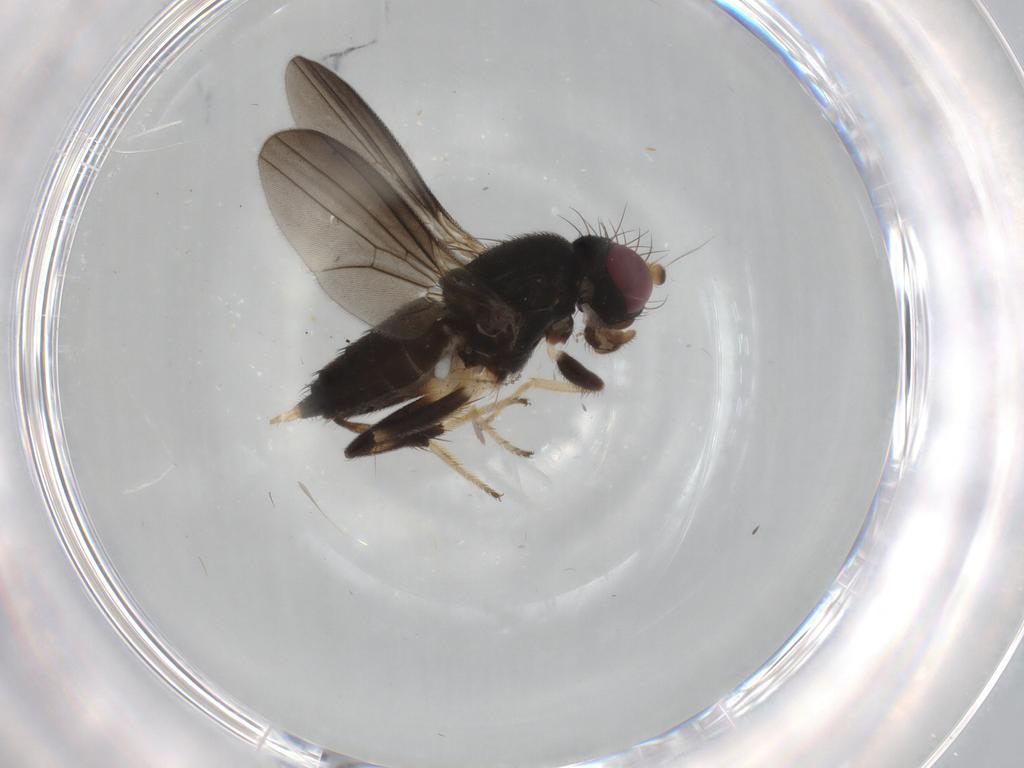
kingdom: Animalia
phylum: Arthropoda
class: Insecta
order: Diptera
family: Clusiidae
